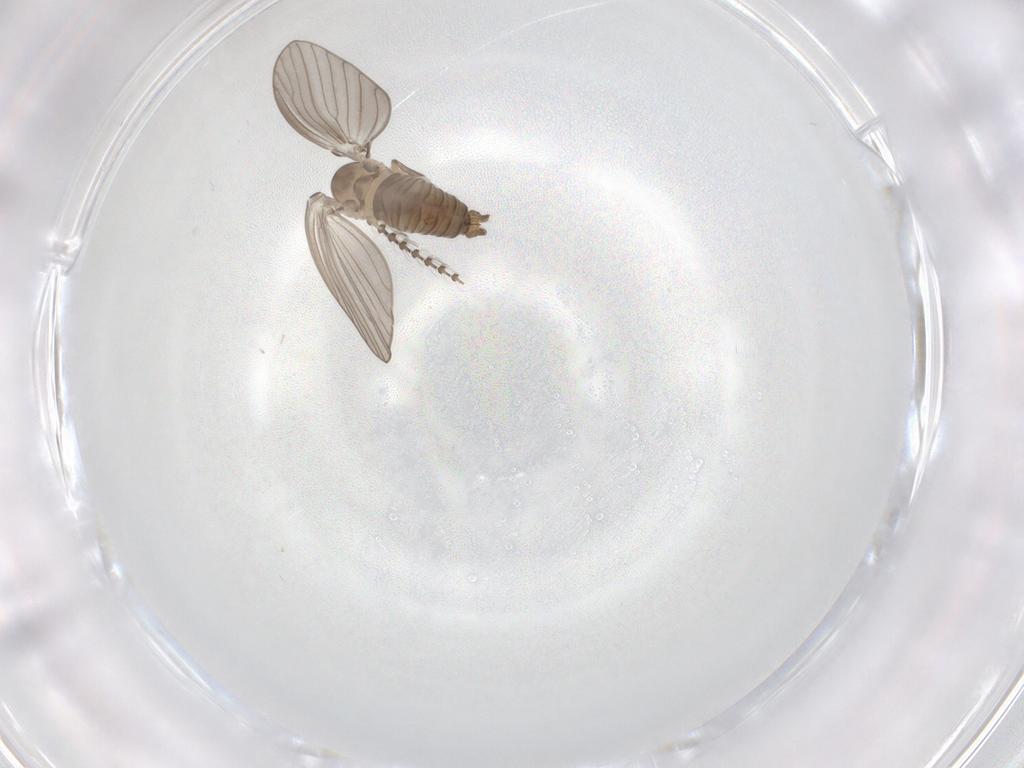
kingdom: Animalia
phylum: Arthropoda
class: Insecta
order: Diptera
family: Psychodidae
